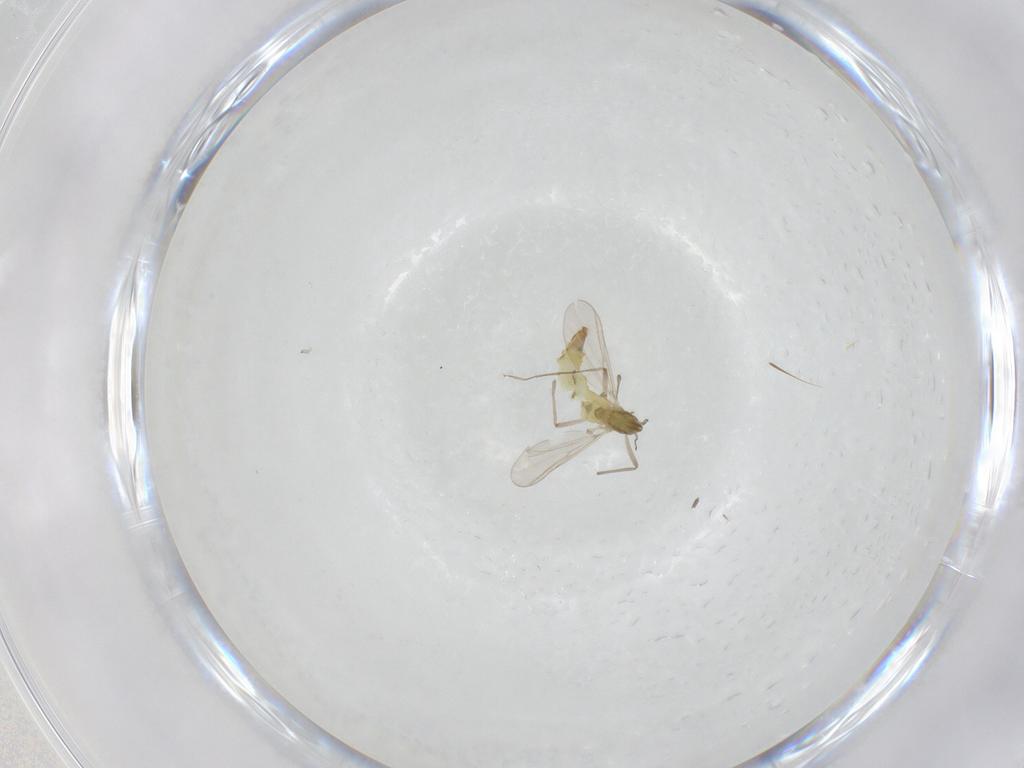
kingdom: Animalia
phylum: Arthropoda
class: Insecta
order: Diptera
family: Chironomidae
